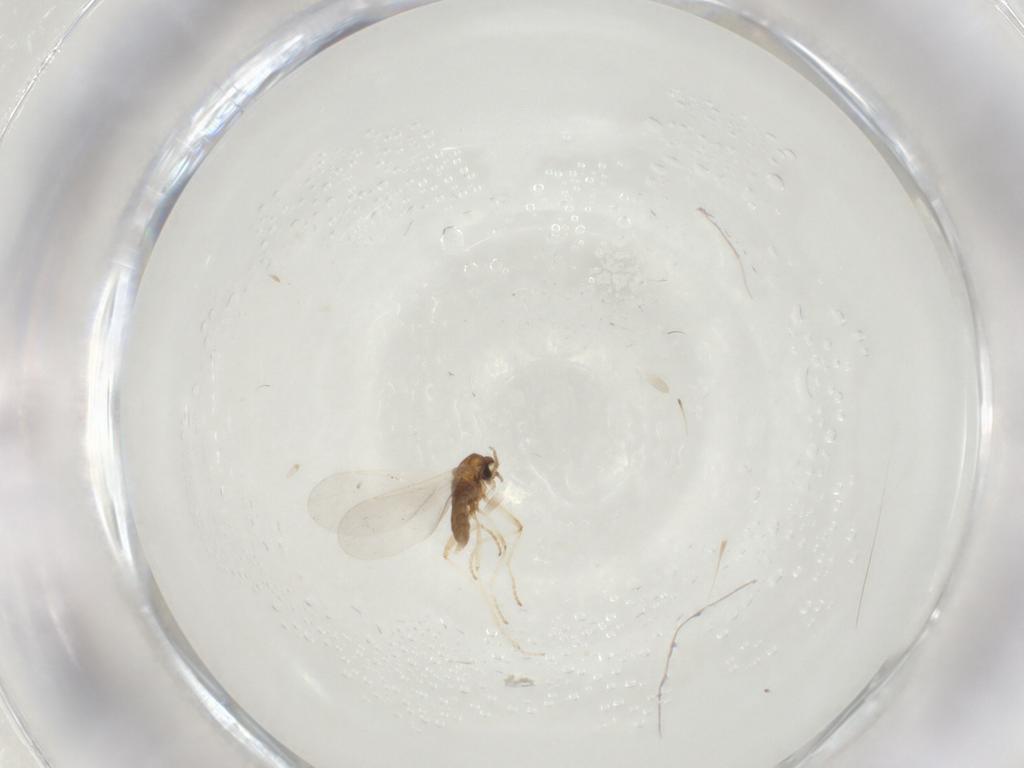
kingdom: Animalia
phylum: Arthropoda
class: Insecta
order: Diptera
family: Cecidomyiidae
